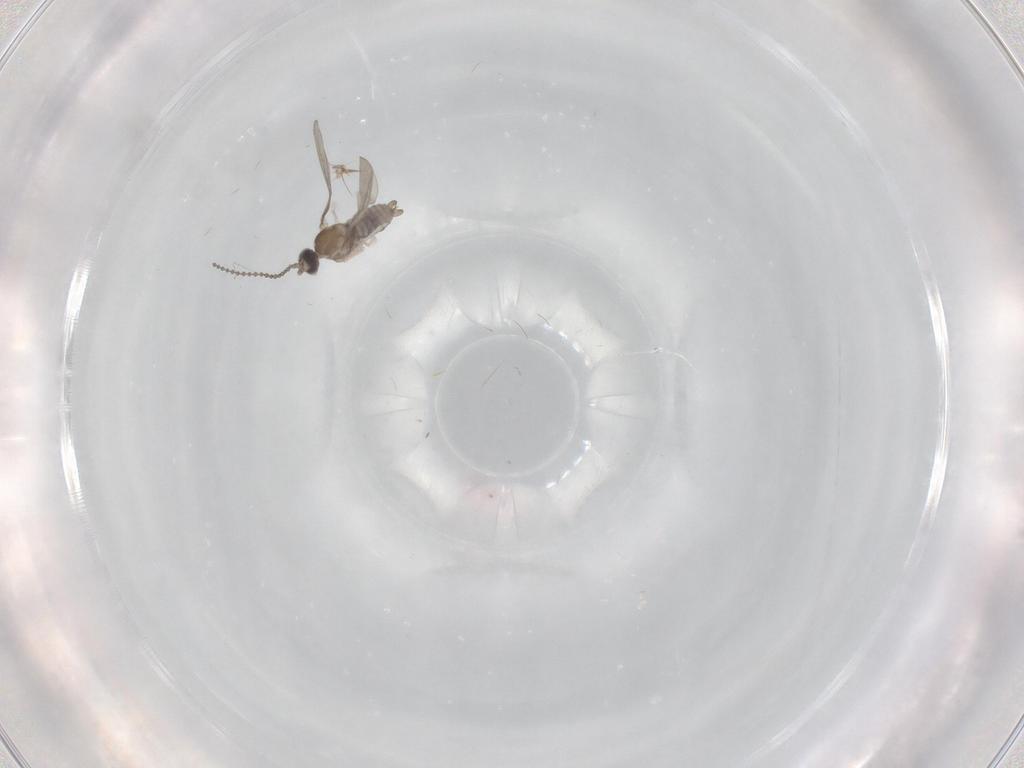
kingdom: Animalia
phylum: Arthropoda
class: Insecta
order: Diptera
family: Cecidomyiidae
